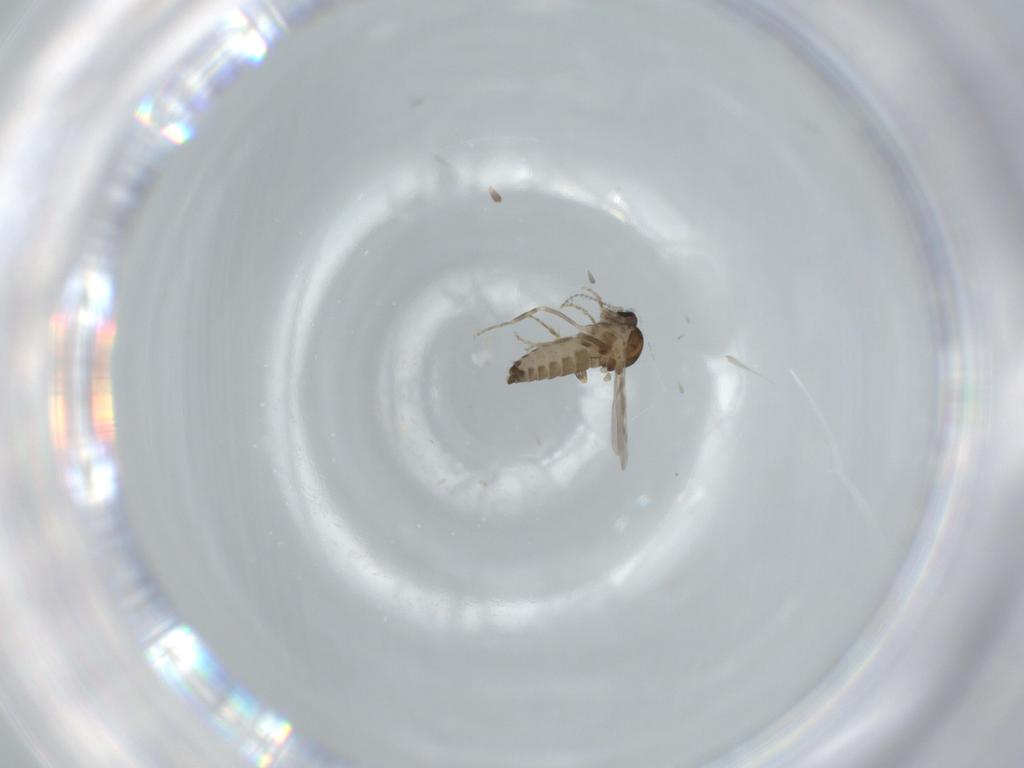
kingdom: Animalia
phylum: Arthropoda
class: Insecta
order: Diptera
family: Ceratopogonidae
